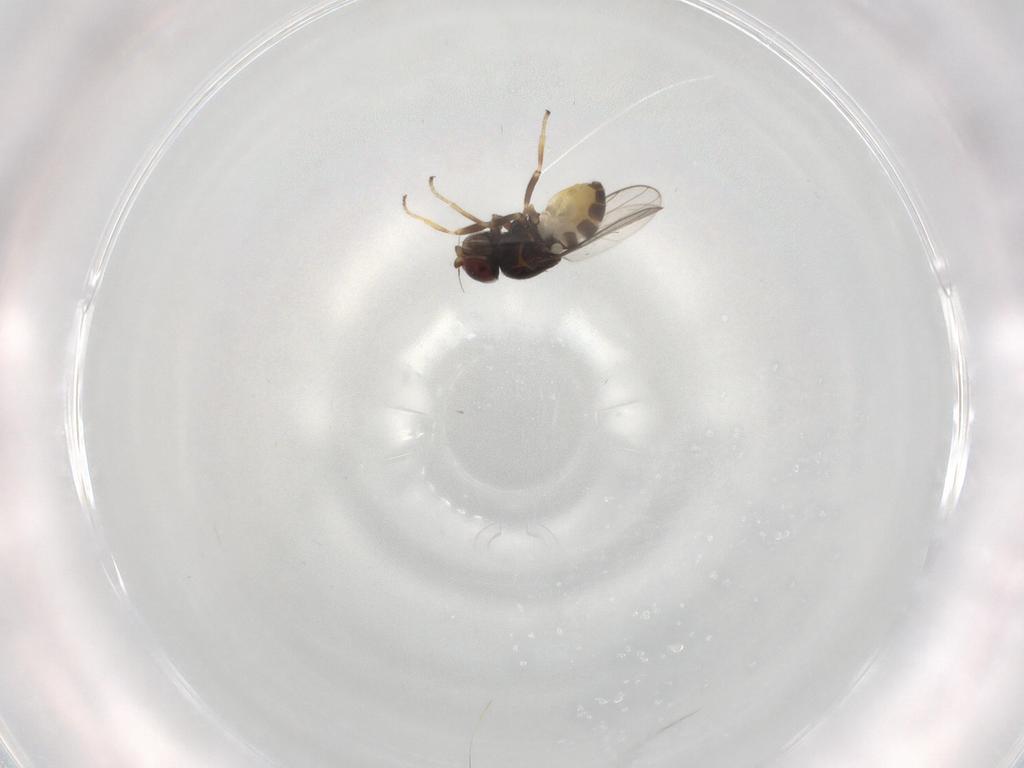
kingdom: Animalia
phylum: Arthropoda
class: Insecta
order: Diptera
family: Chloropidae
